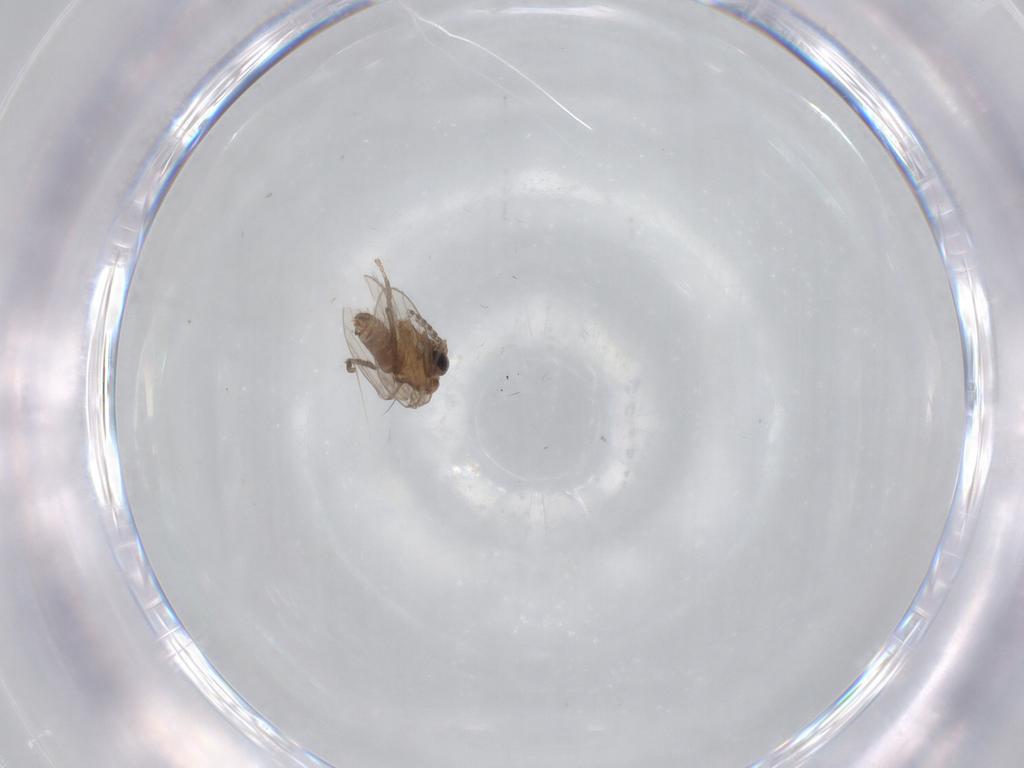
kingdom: Animalia
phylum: Arthropoda
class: Insecta
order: Diptera
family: Ceratopogonidae
